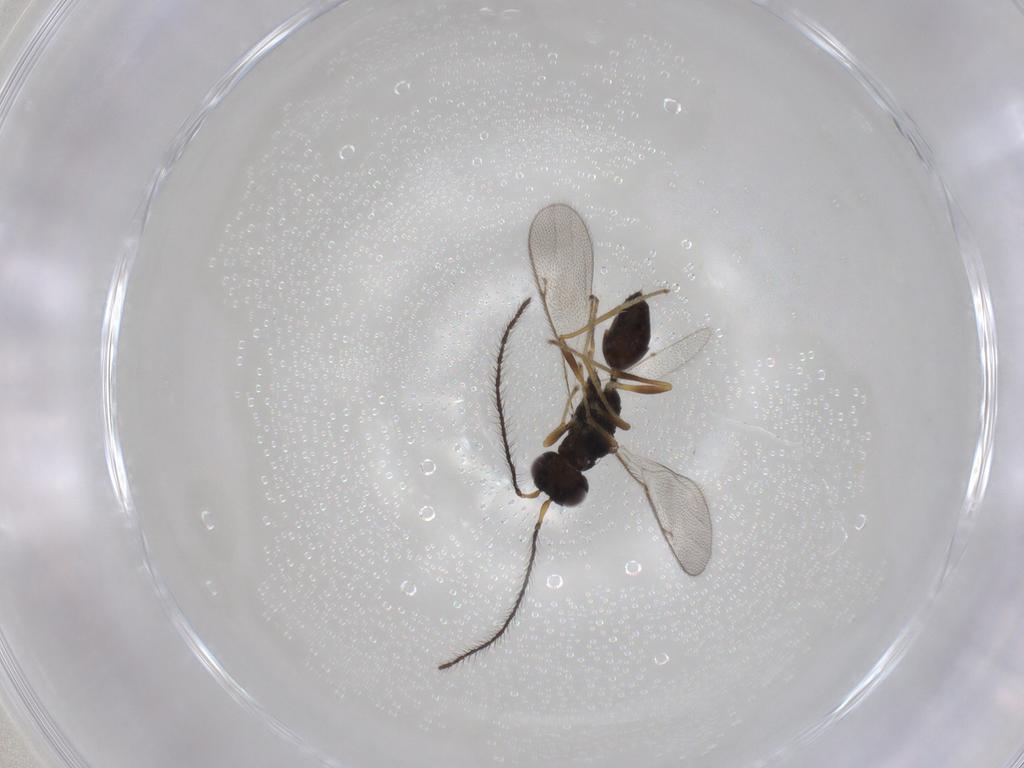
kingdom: Animalia
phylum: Arthropoda
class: Insecta
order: Hymenoptera
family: Diparidae
